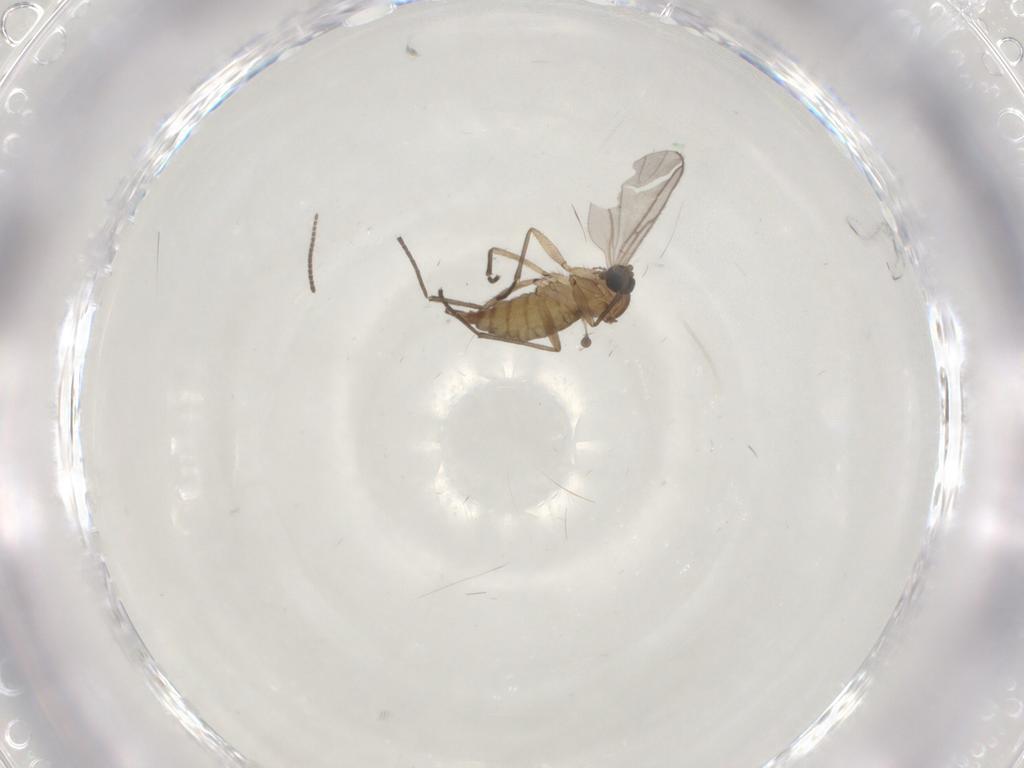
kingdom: Animalia
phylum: Arthropoda
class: Insecta
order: Diptera
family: Sciaridae
